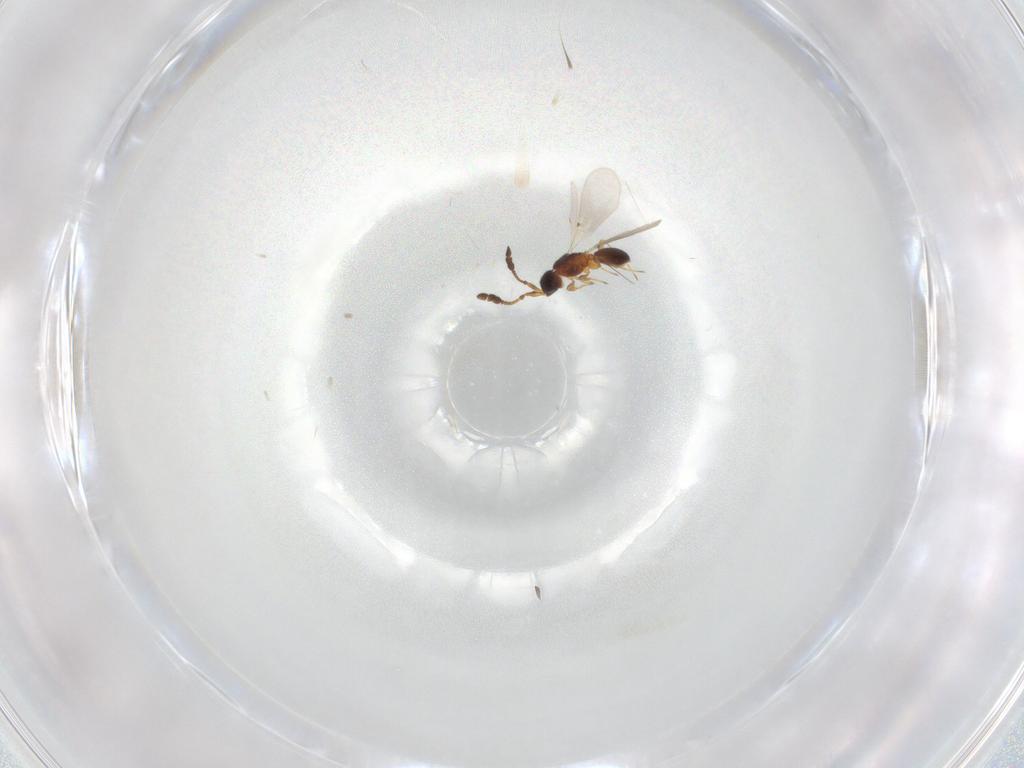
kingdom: Animalia
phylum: Arthropoda
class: Insecta
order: Hymenoptera
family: Diapriidae
